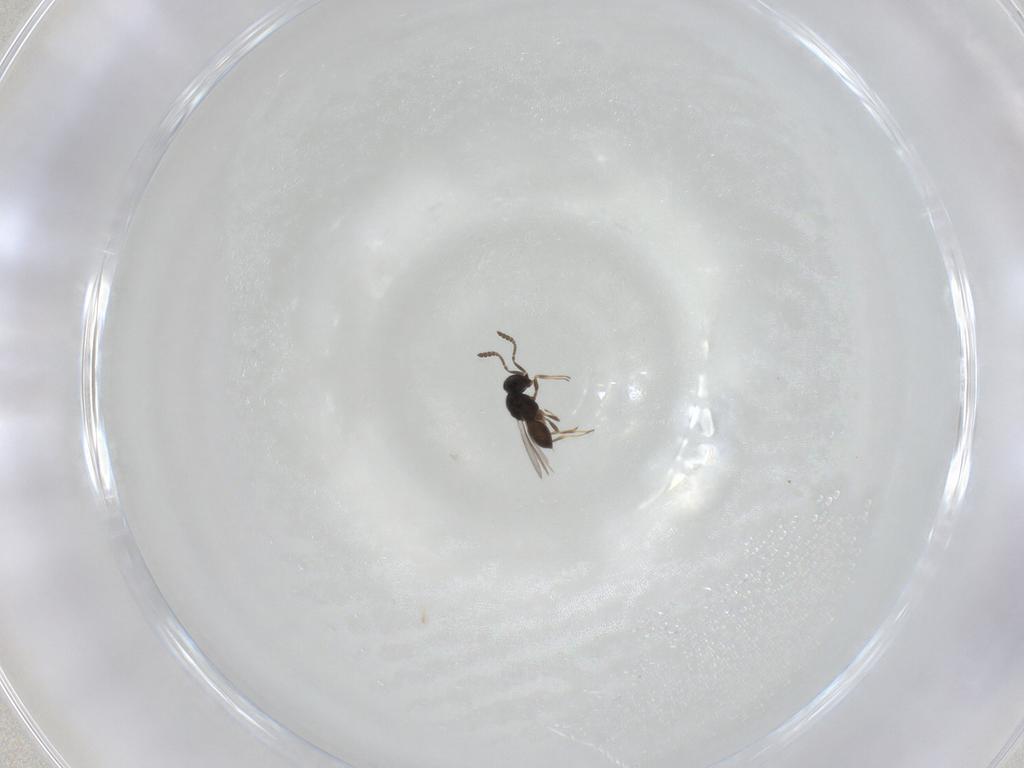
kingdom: Animalia
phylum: Arthropoda
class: Insecta
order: Hymenoptera
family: Scelionidae
